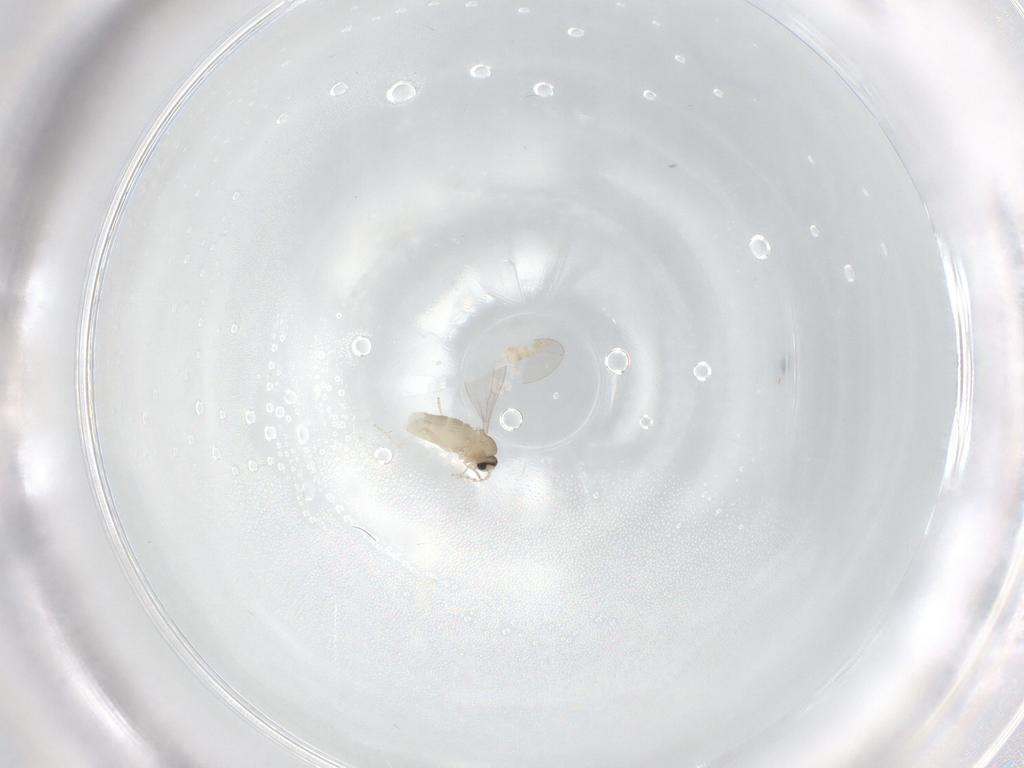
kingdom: Animalia
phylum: Arthropoda
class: Insecta
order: Diptera
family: Cecidomyiidae
